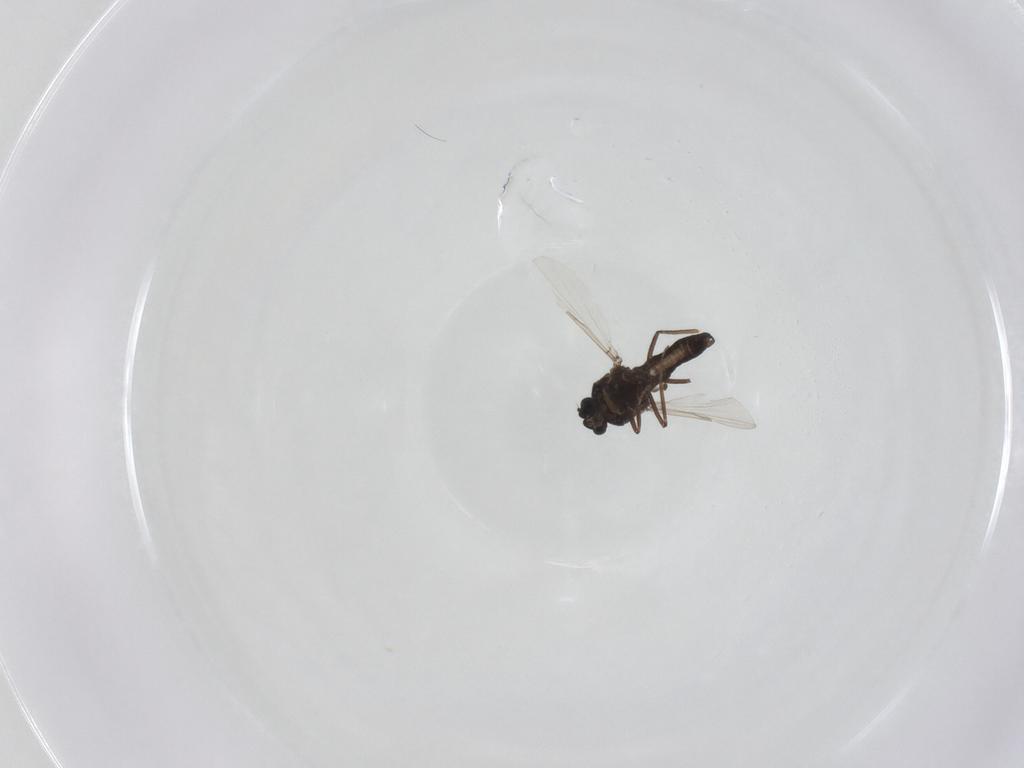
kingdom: Animalia
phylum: Arthropoda
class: Insecta
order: Diptera
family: Ceratopogonidae
